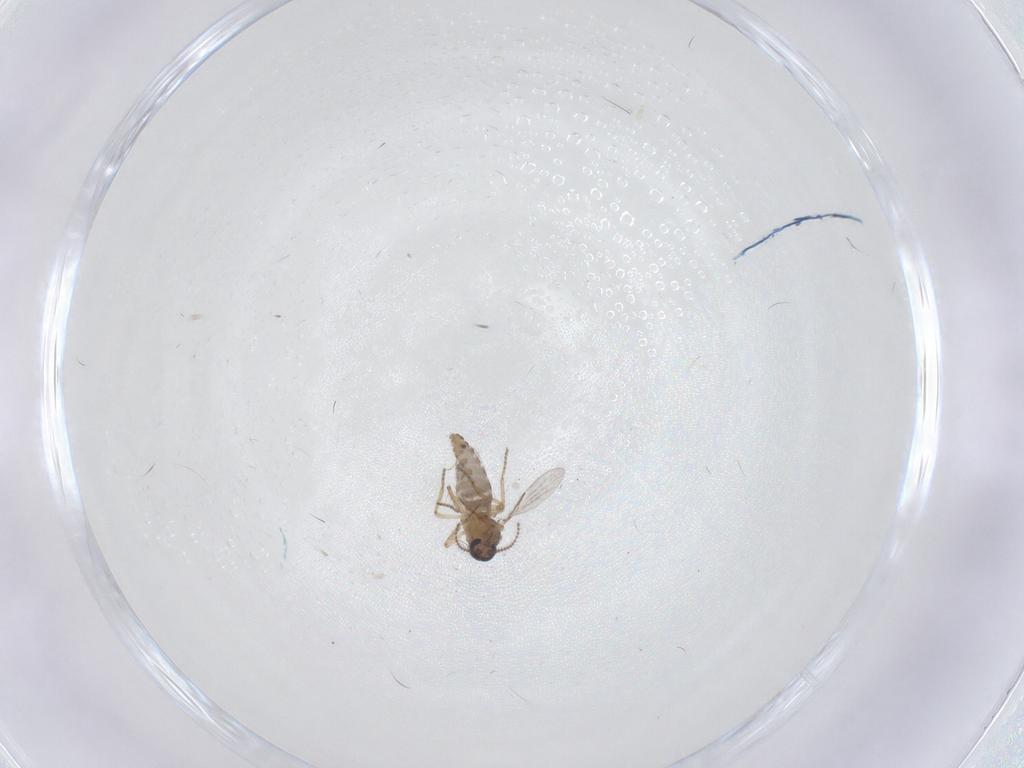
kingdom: Animalia
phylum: Arthropoda
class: Insecta
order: Diptera
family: Ceratopogonidae
